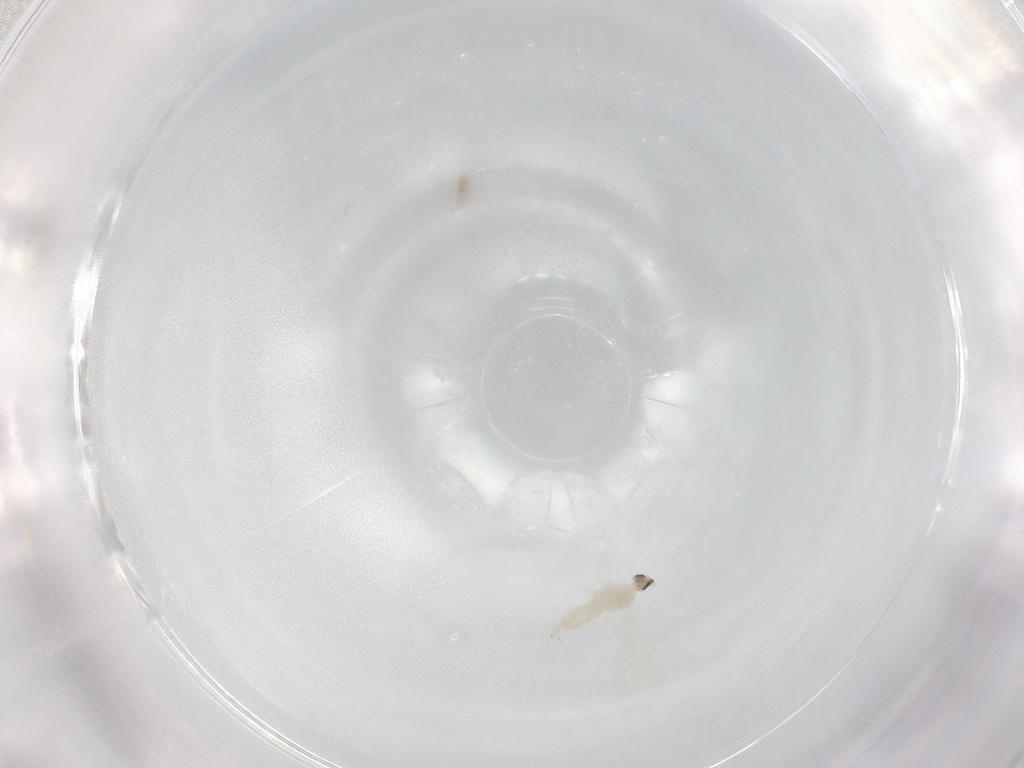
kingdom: Animalia
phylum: Arthropoda
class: Insecta
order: Diptera
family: Cecidomyiidae
